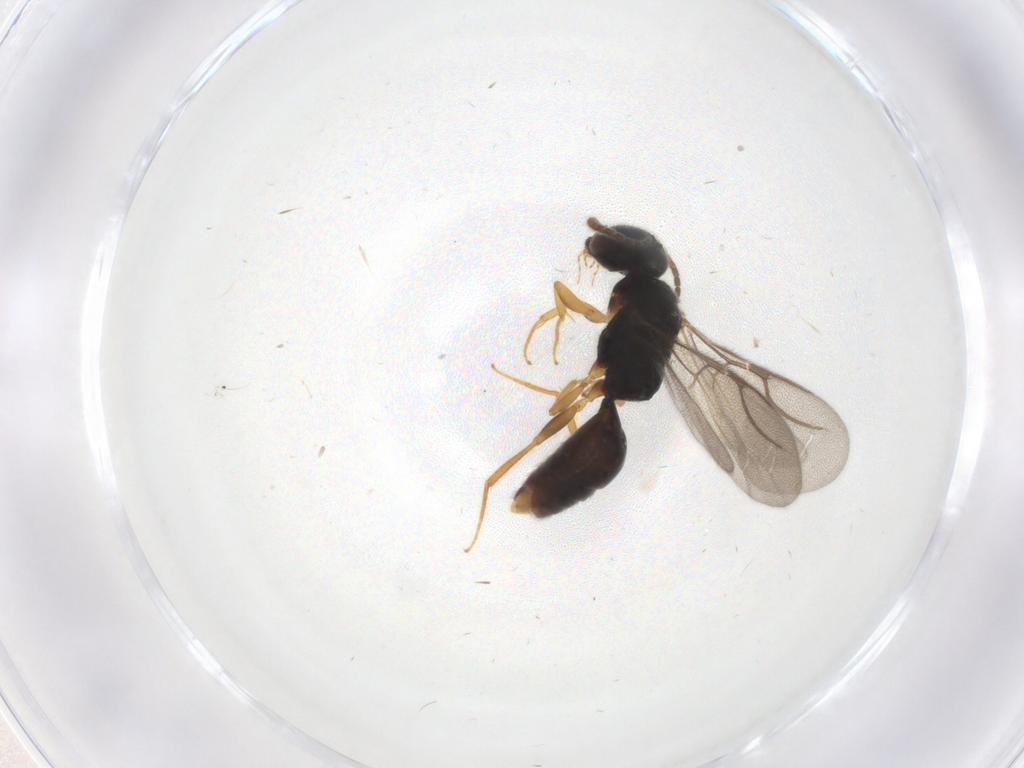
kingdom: Animalia
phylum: Arthropoda
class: Insecta
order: Hymenoptera
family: Bethylidae
